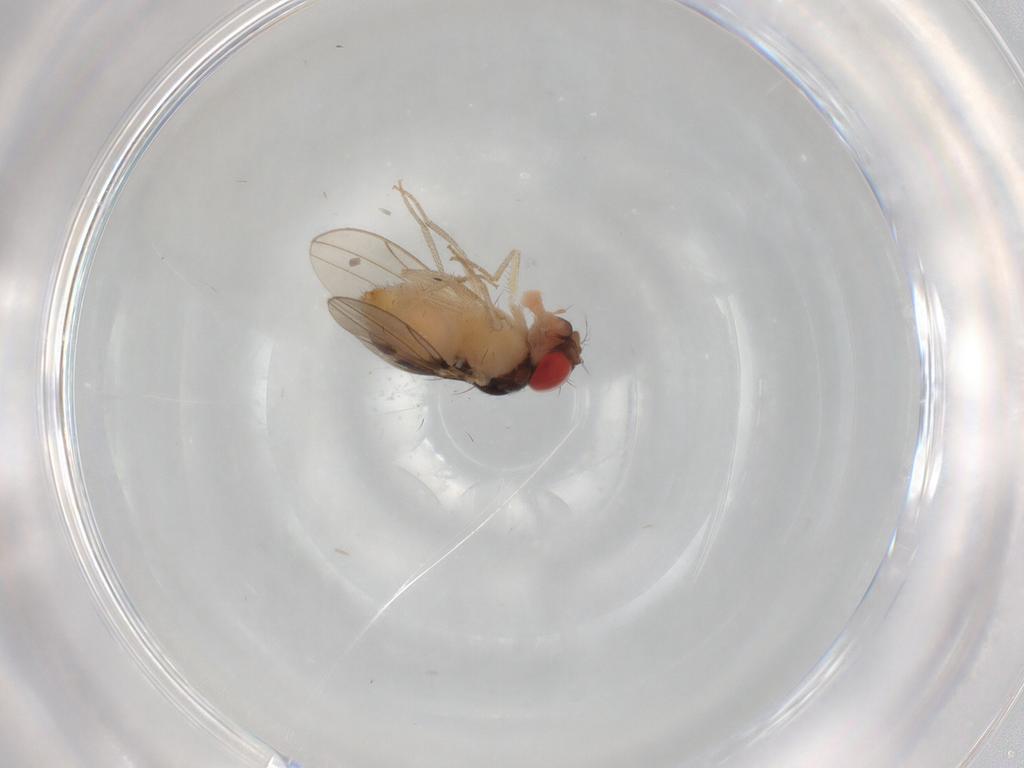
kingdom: Animalia
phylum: Arthropoda
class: Insecta
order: Diptera
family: Drosophilidae
